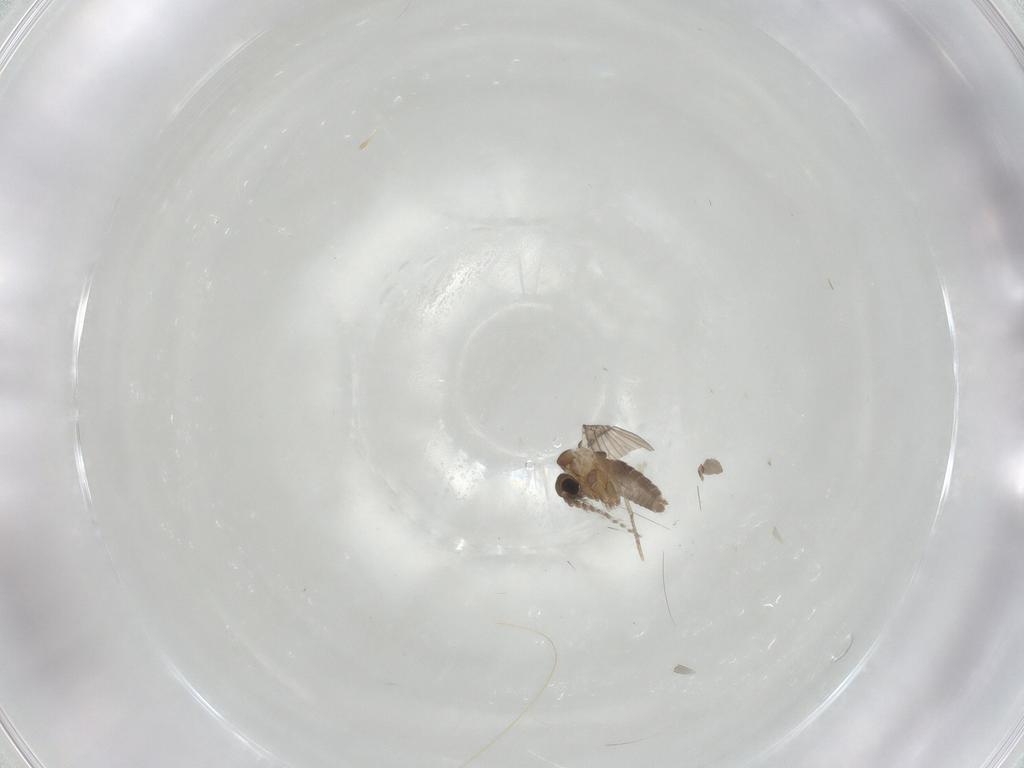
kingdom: Animalia
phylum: Arthropoda
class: Insecta
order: Diptera
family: Psychodidae
